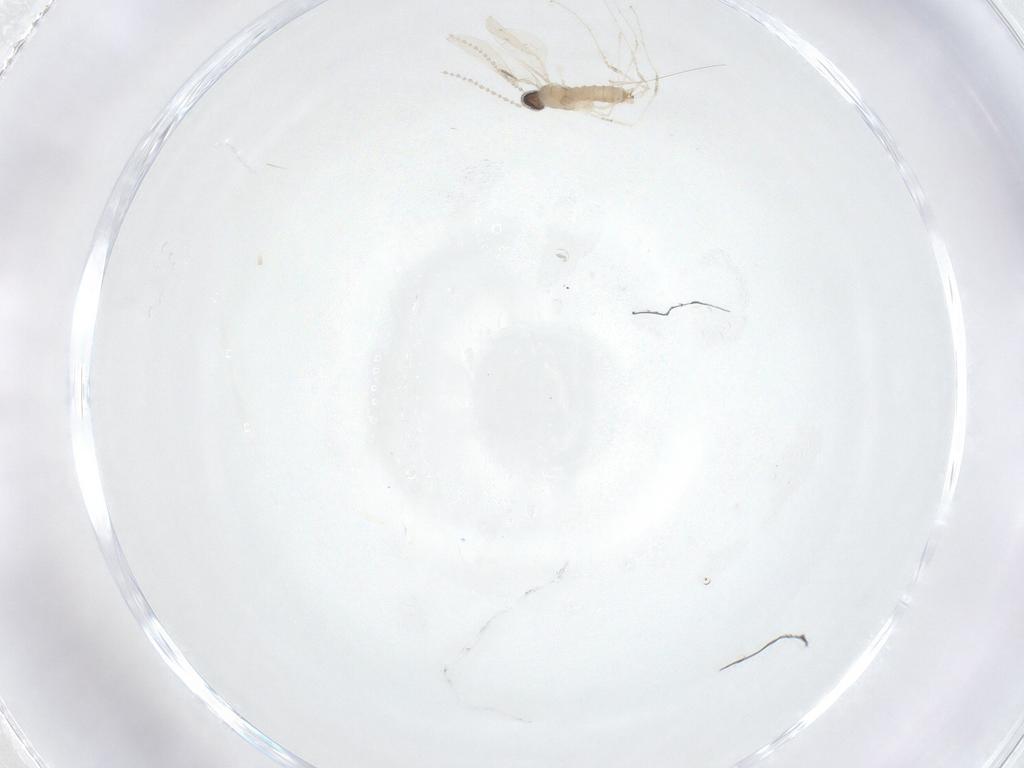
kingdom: Animalia
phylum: Arthropoda
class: Insecta
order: Diptera
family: Cecidomyiidae
